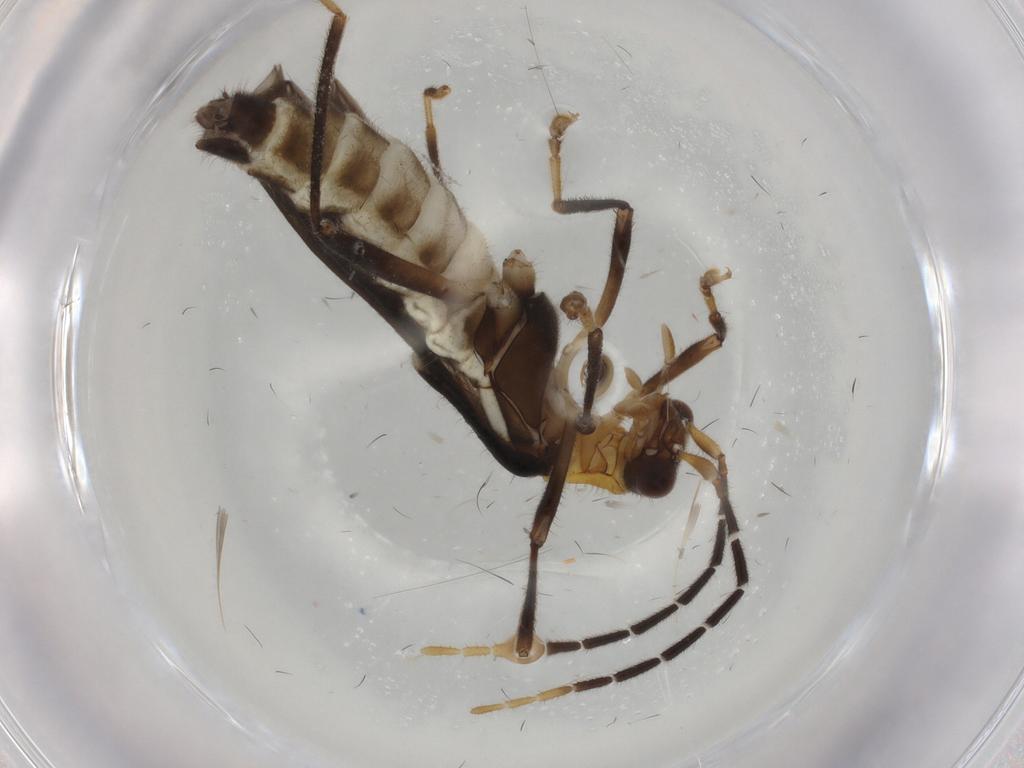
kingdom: Animalia
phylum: Arthropoda
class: Insecta
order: Coleoptera
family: Cantharidae
